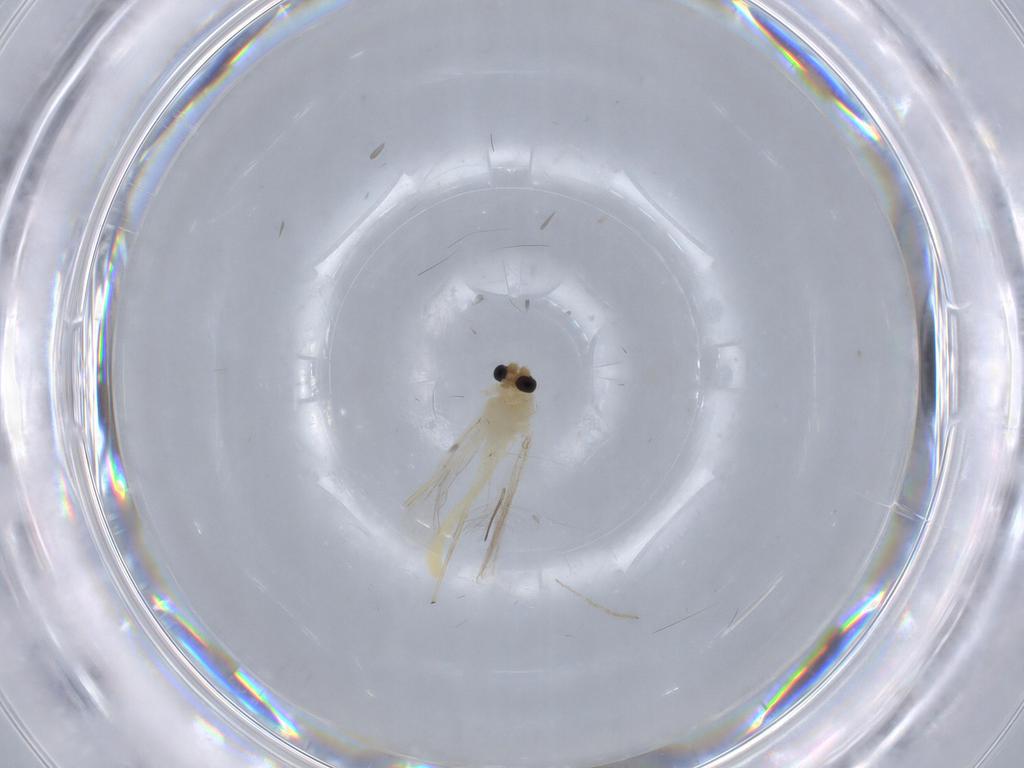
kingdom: Animalia
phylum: Arthropoda
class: Insecta
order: Diptera
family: Chironomidae
